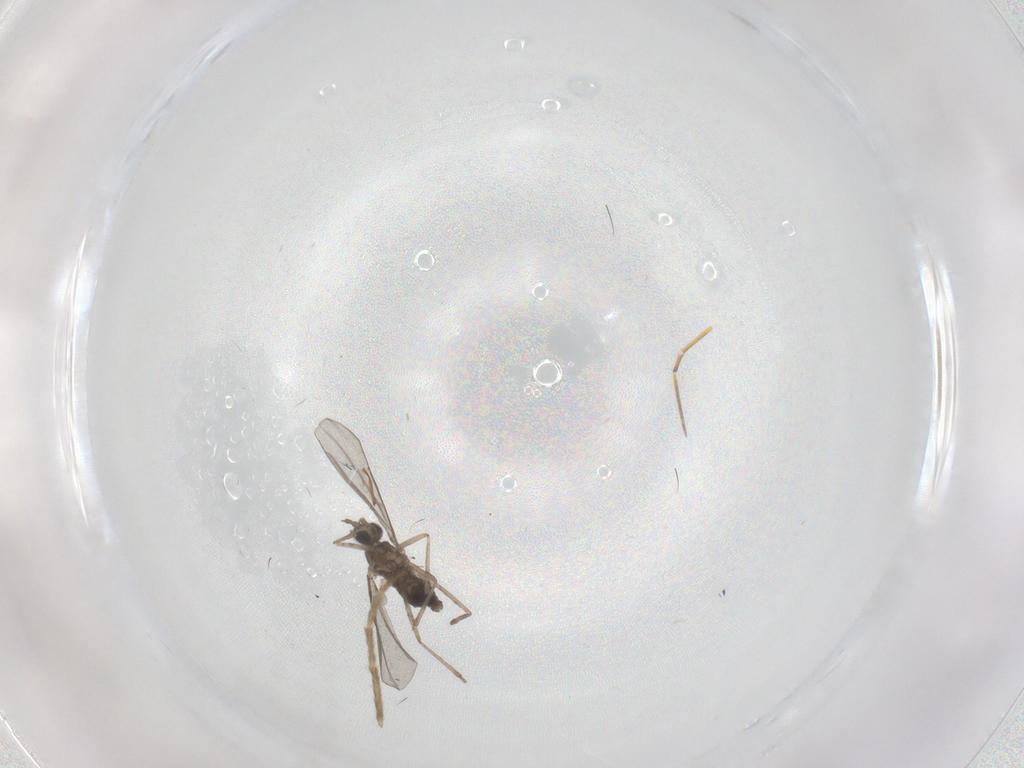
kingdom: Animalia
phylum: Arthropoda
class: Insecta
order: Diptera
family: Cecidomyiidae
